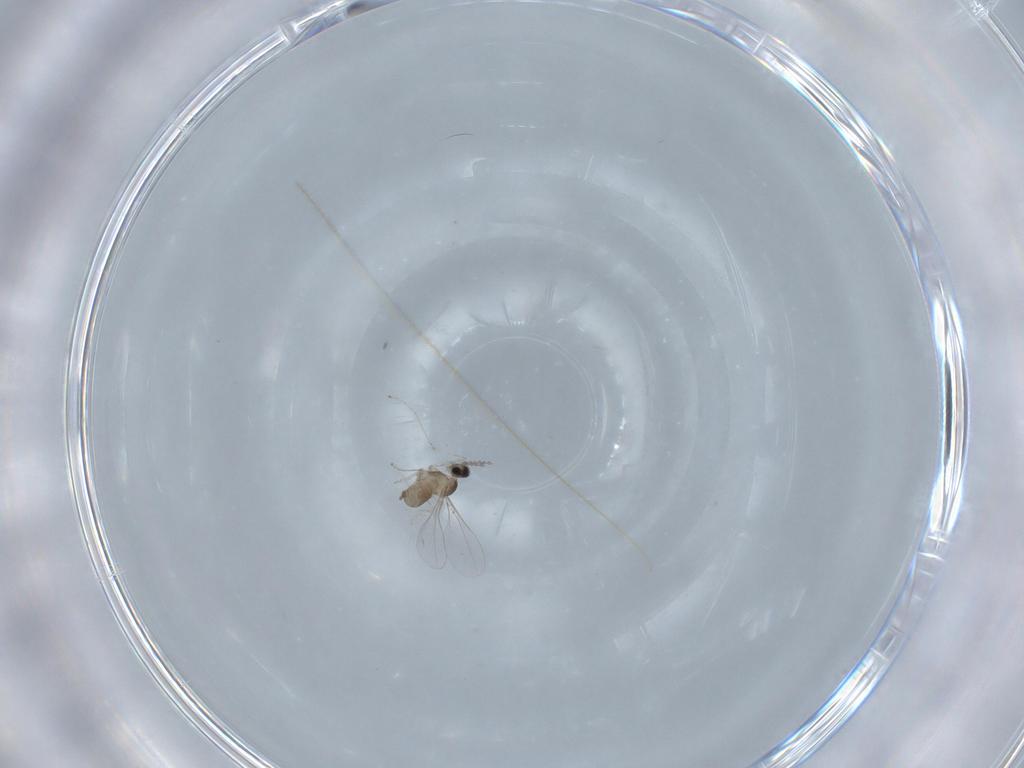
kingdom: Animalia
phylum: Arthropoda
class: Insecta
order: Diptera
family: Cecidomyiidae
